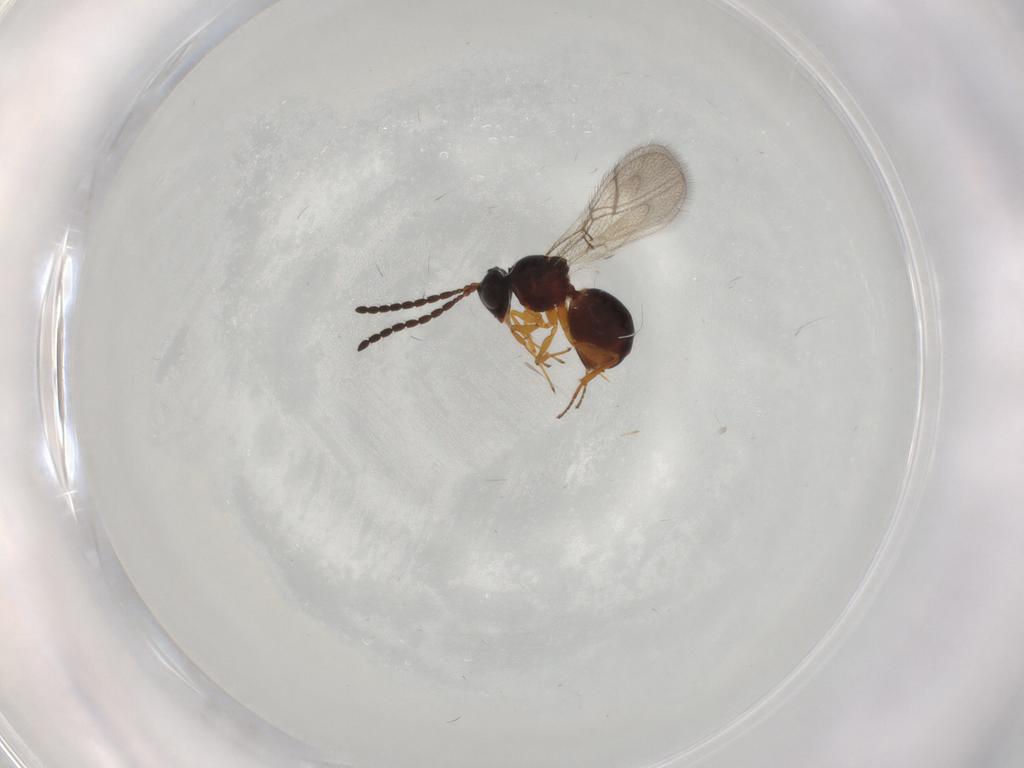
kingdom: Animalia
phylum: Arthropoda
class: Insecta
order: Hymenoptera
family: Figitidae
